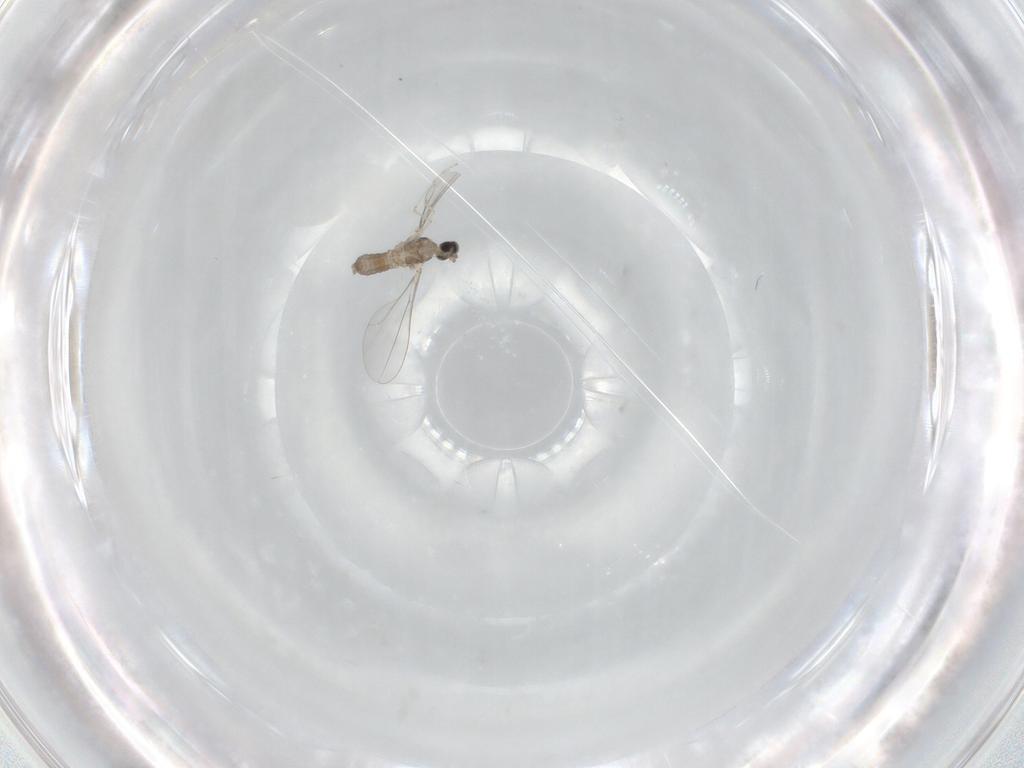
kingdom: Animalia
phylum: Arthropoda
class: Insecta
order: Diptera
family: Cecidomyiidae
